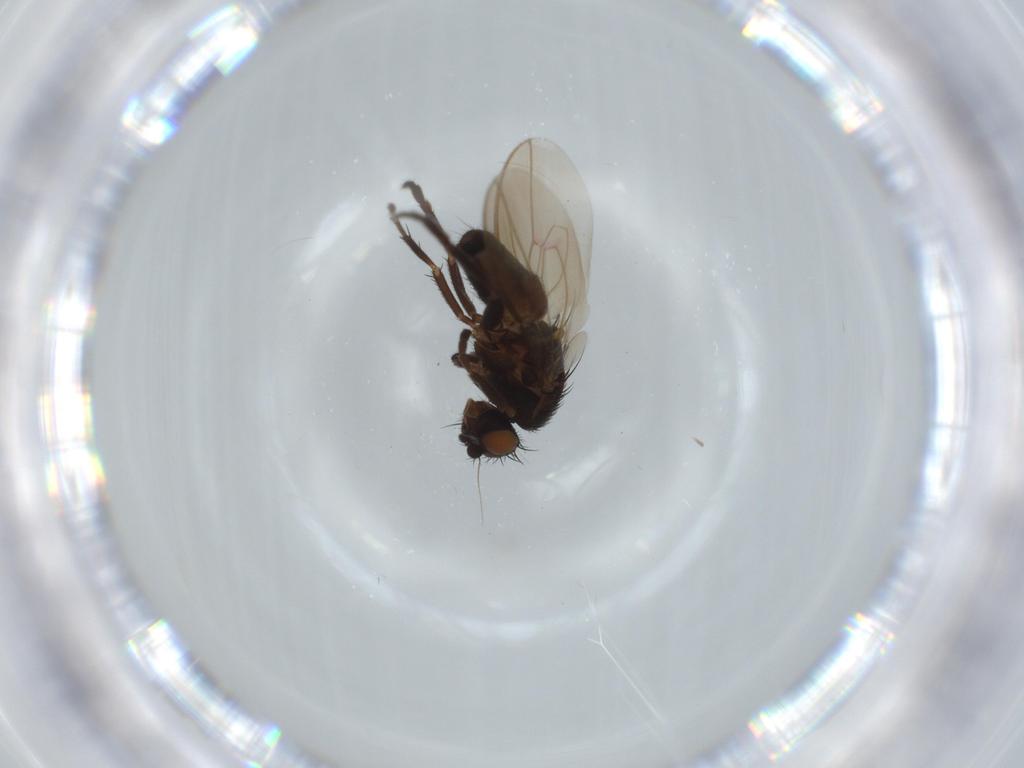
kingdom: Animalia
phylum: Arthropoda
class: Insecta
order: Diptera
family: Sphaeroceridae
